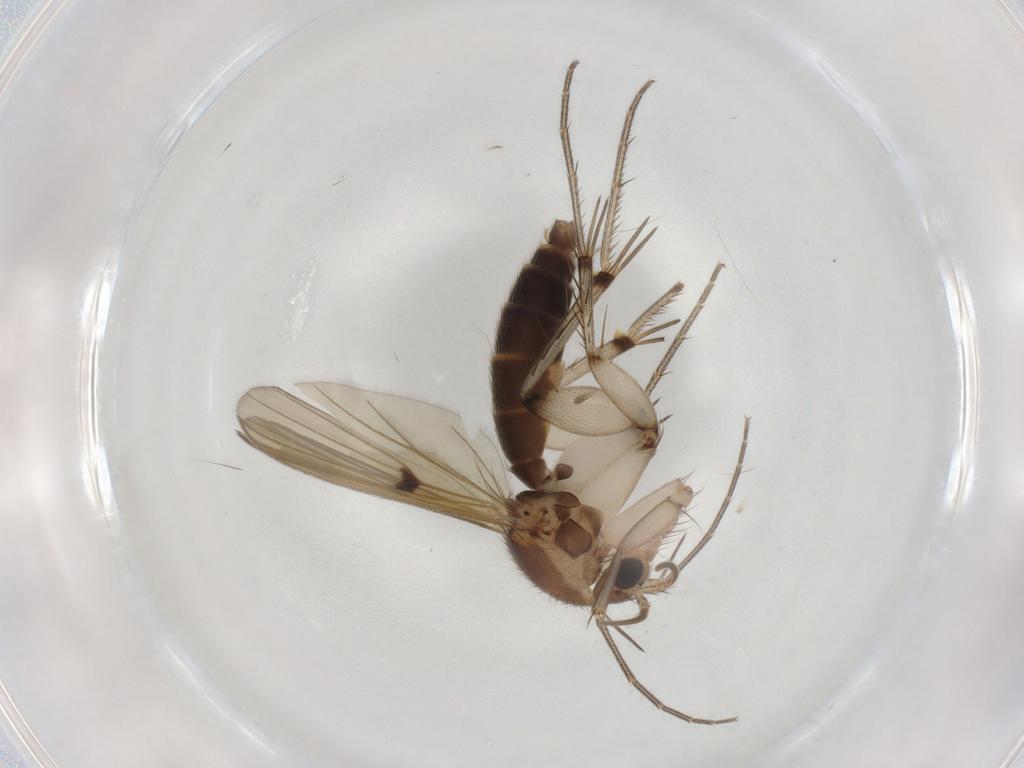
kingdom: Animalia
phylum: Arthropoda
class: Insecta
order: Diptera
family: Mycetophilidae
